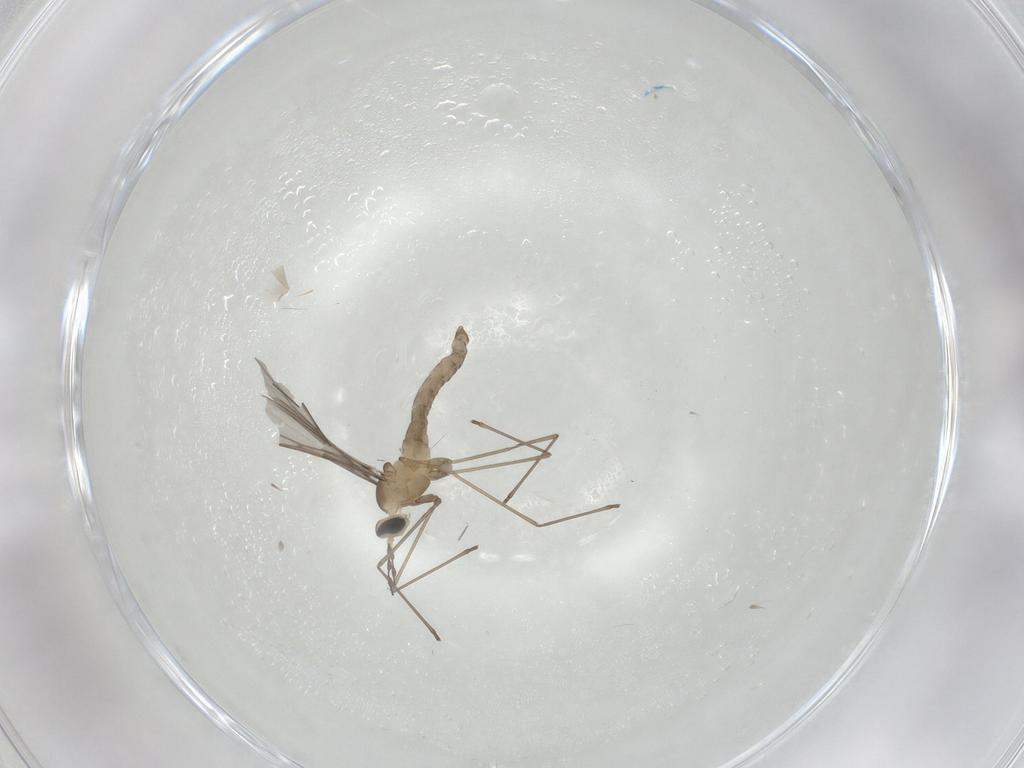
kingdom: Animalia
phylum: Arthropoda
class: Insecta
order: Diptera
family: Cecidomyiidae
